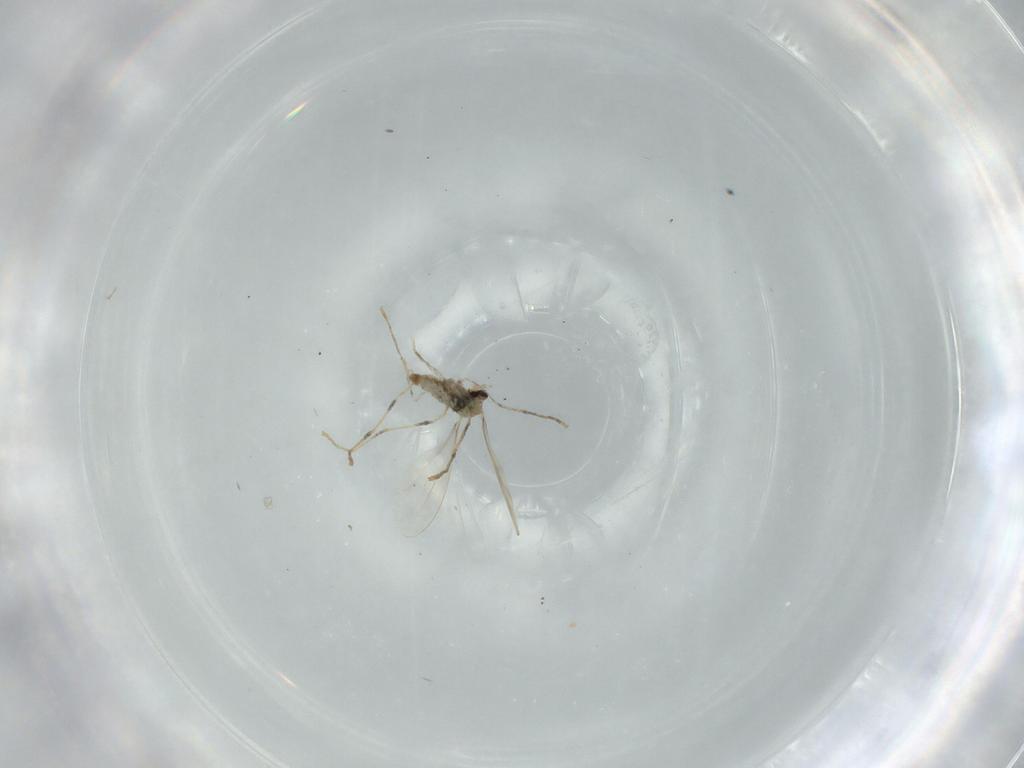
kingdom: Animalia
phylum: Arthropoda
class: Insecta
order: Diptera
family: Cecidomyiidae
